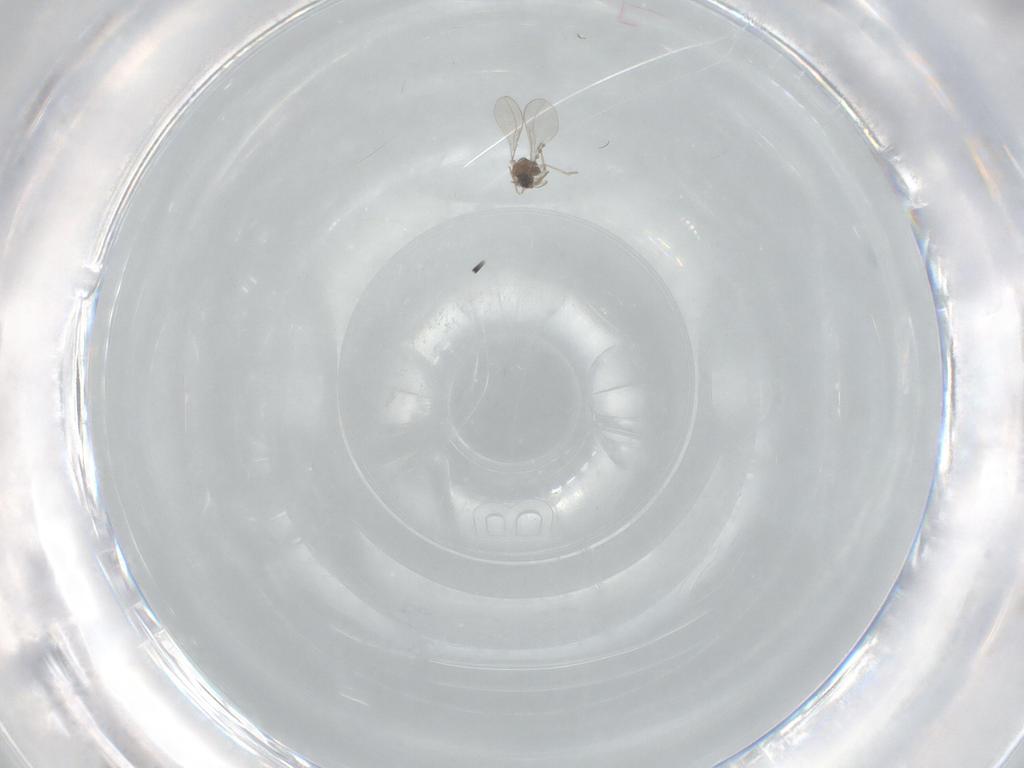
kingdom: Animalia
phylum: Arthropoda
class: Insecta
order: Diptera
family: Cecidomyiidae
